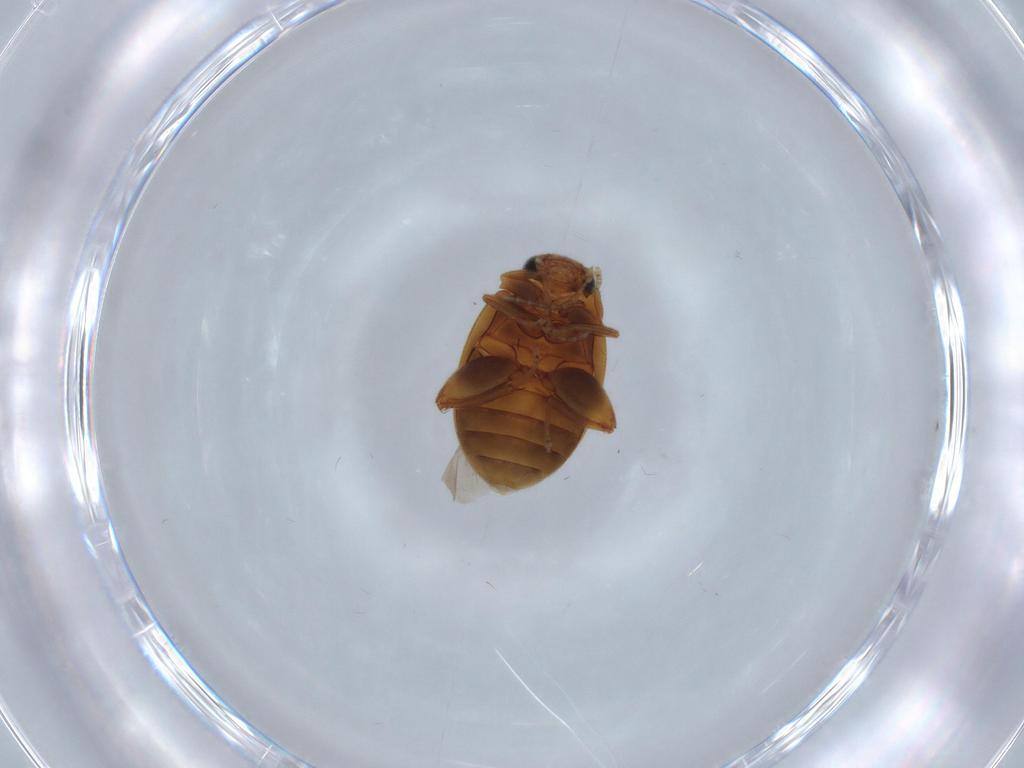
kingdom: Animalia
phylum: Arthropoda
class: Insecta
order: Coleoptera
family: Scirtidae
